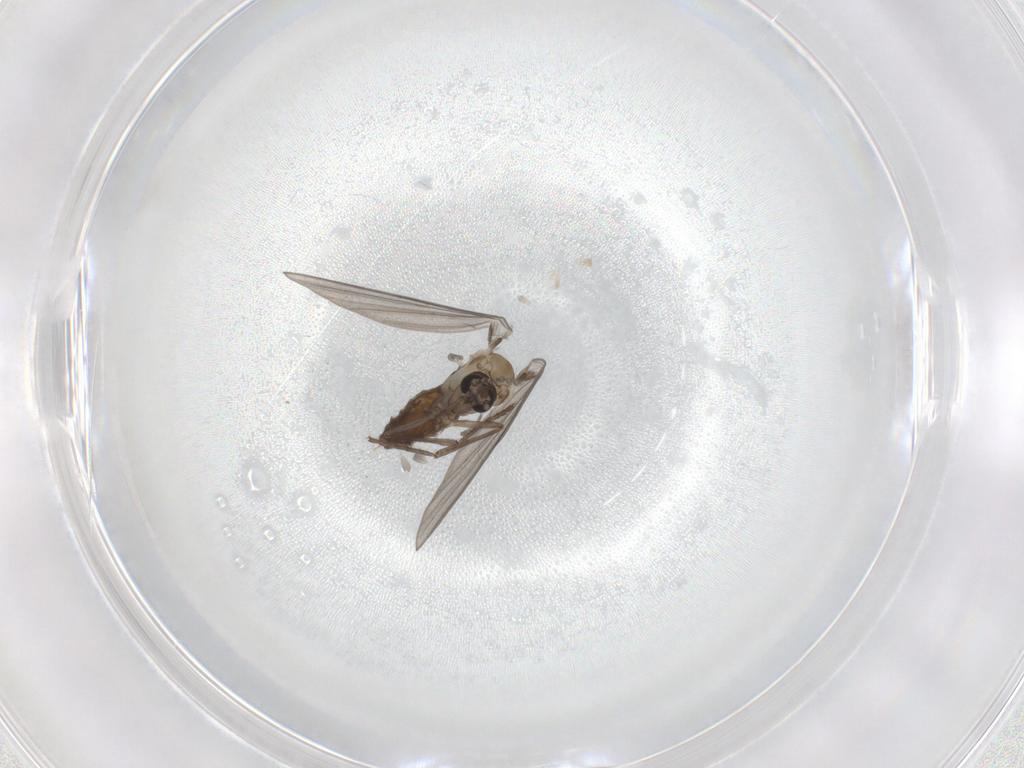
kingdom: Animalia
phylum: Arthropoda
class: Insecta
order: Diptera
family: Psychodidae
